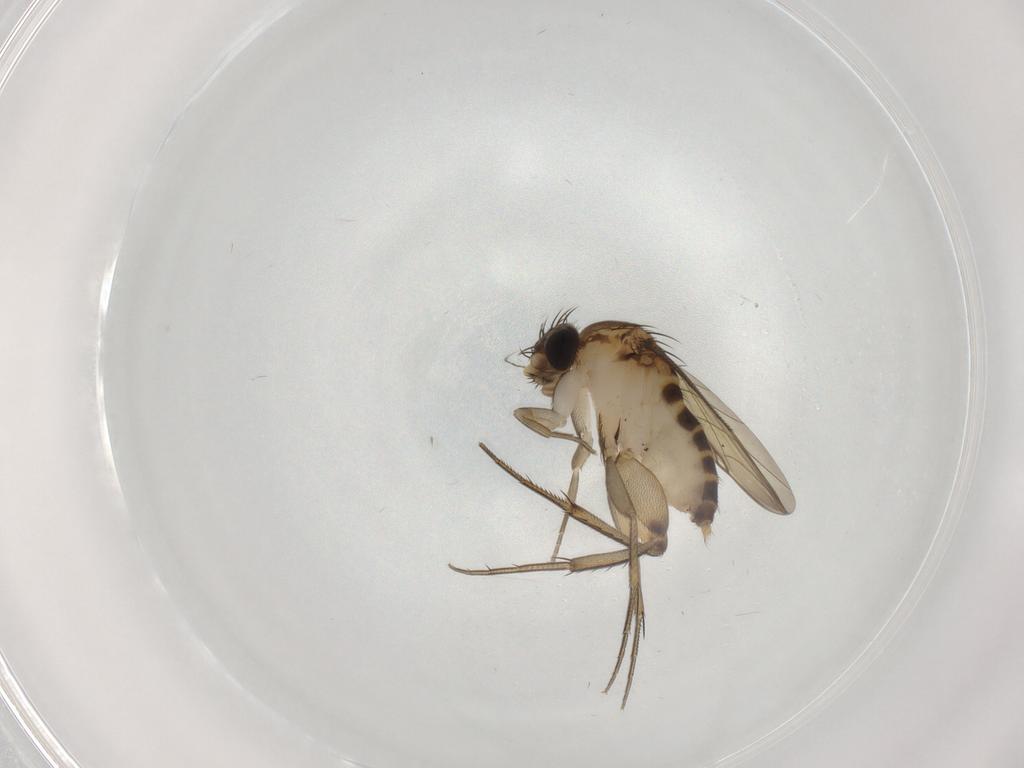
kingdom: Animalia
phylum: Arthropoda
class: Insecta
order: Diptera
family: Phoridae
